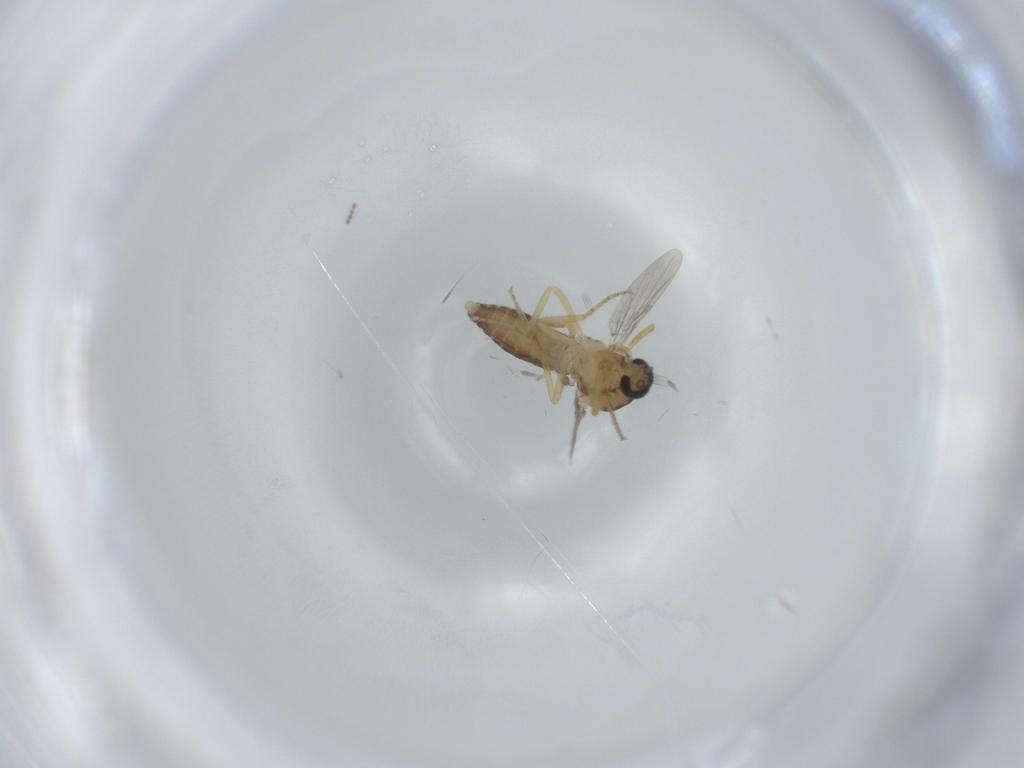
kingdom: Animalia
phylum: Arthropoda
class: Insecta
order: Diptera
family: Ceratopogonidae
